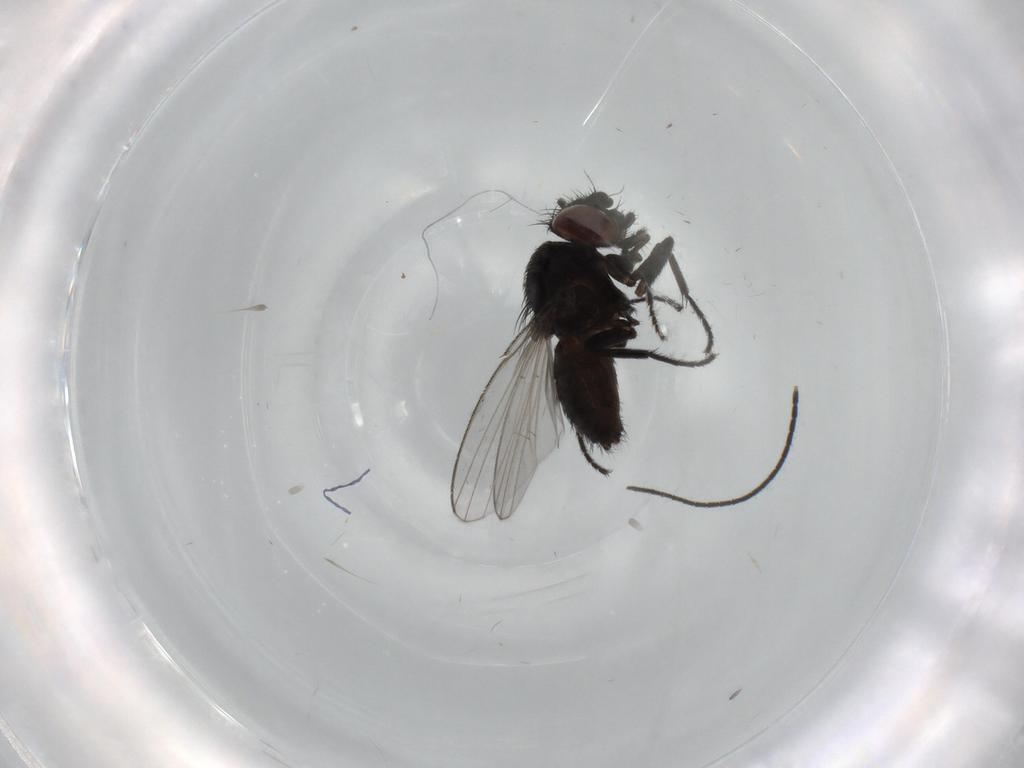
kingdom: Animalia
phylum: Arthropoda
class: Insecta
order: Diptera
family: Milichiidae
